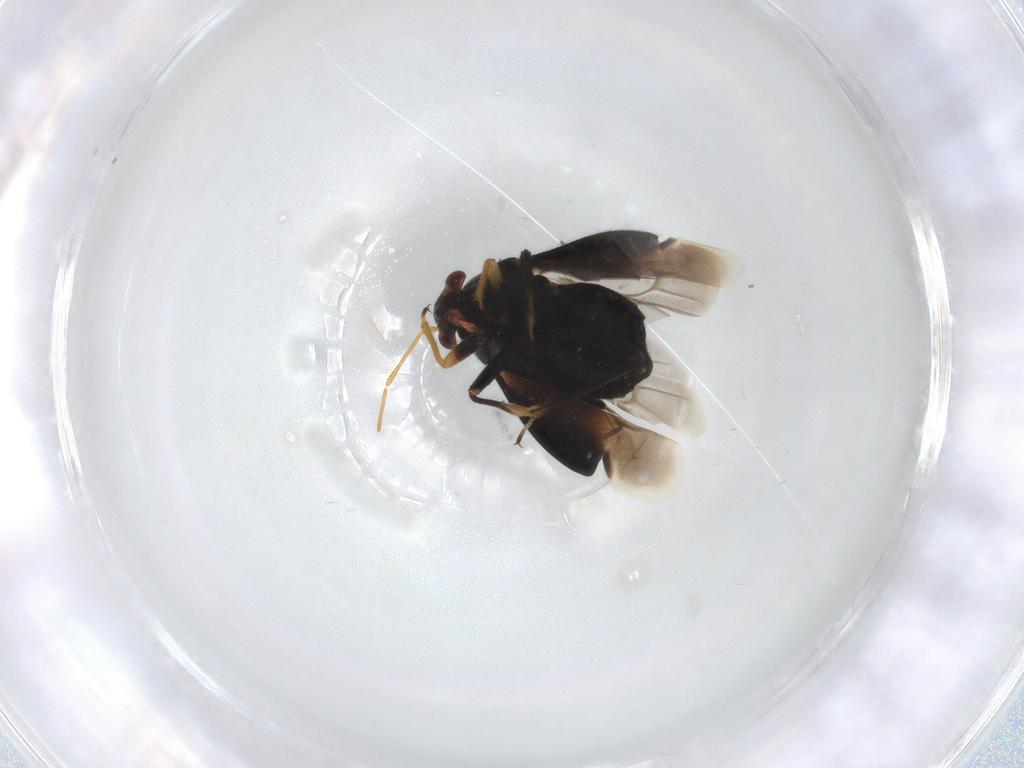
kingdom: Animalia
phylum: Arthropoda
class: Insecta
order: Hemiptera
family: Miridae
